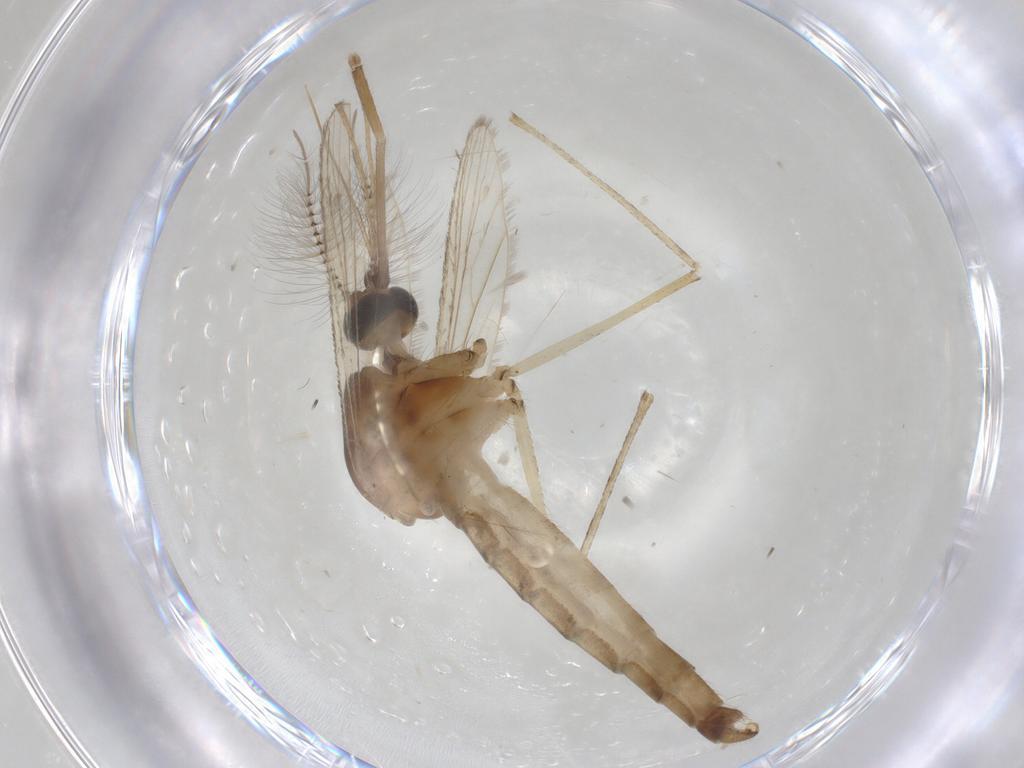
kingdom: Animalia
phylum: Arthropoda
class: Insecta
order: Diptera
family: Culicidae
